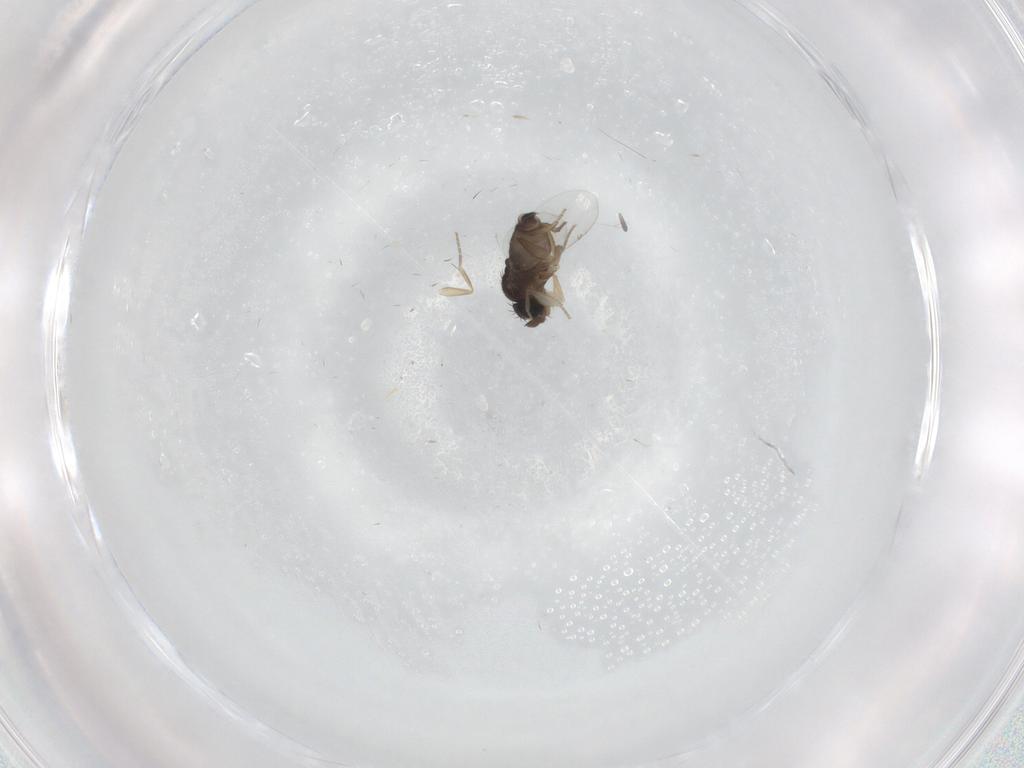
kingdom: Animalia
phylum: Arthropoda
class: Insecta
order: Diptera
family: Phoridae
